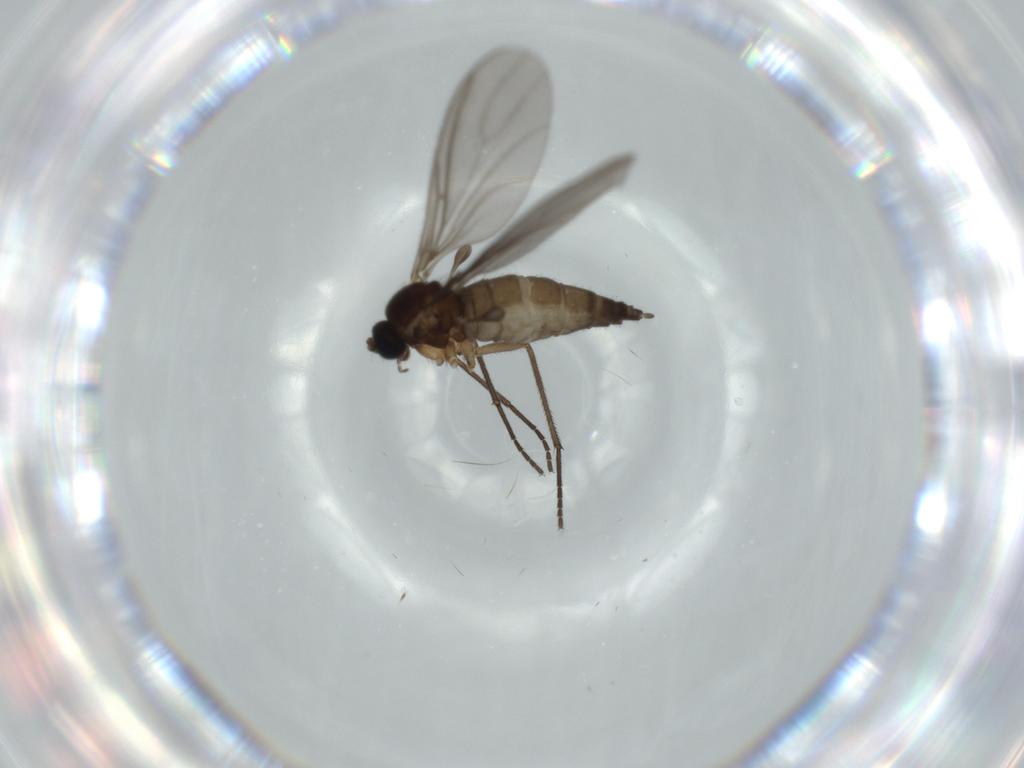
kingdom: Animalia
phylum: Arthropoda
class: Insecta
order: Diptera
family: Sciaridae
